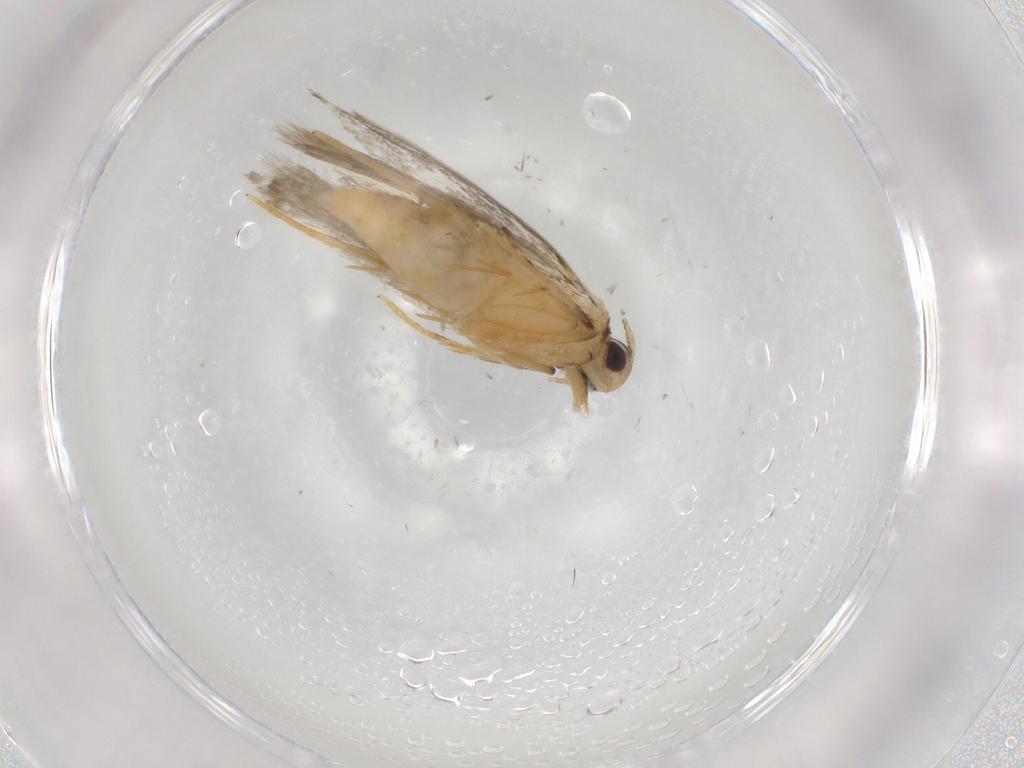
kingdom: Animalia
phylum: Arthropoda
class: Insecta
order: Lepidoptera
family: Autostichidae
